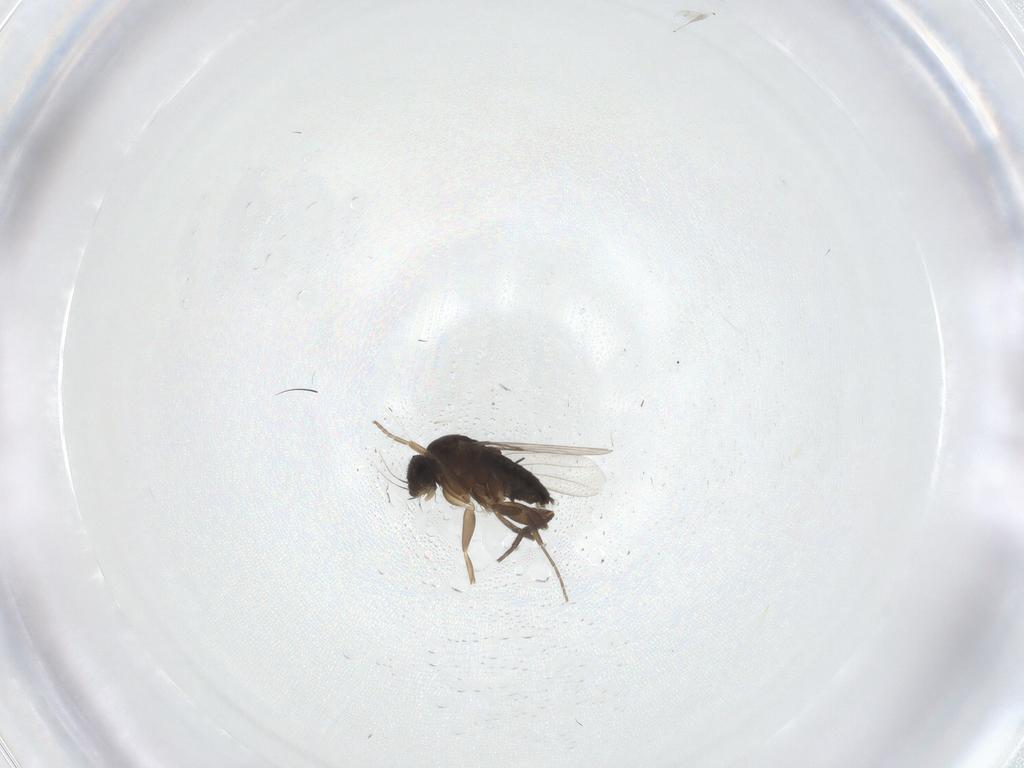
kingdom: Animalia
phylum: Arthropoda
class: Insecta
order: Diptera
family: Phoridae
